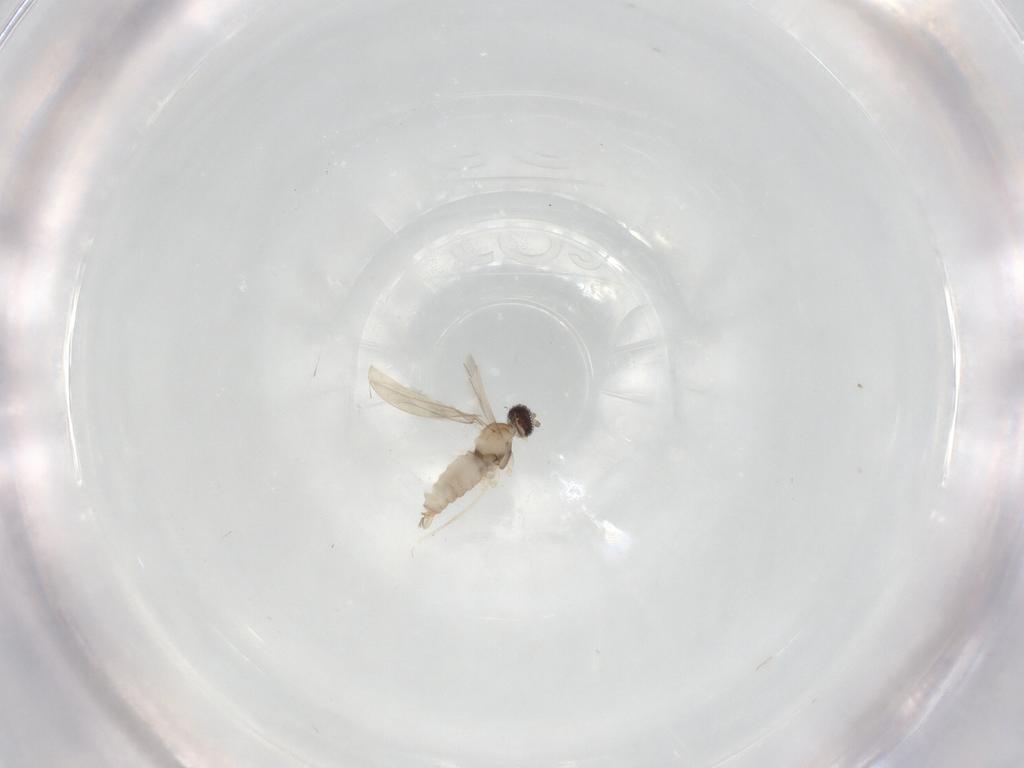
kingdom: Animalia
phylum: Arthropoda
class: Insecta
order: Diptera
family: Cecidomyiidae
